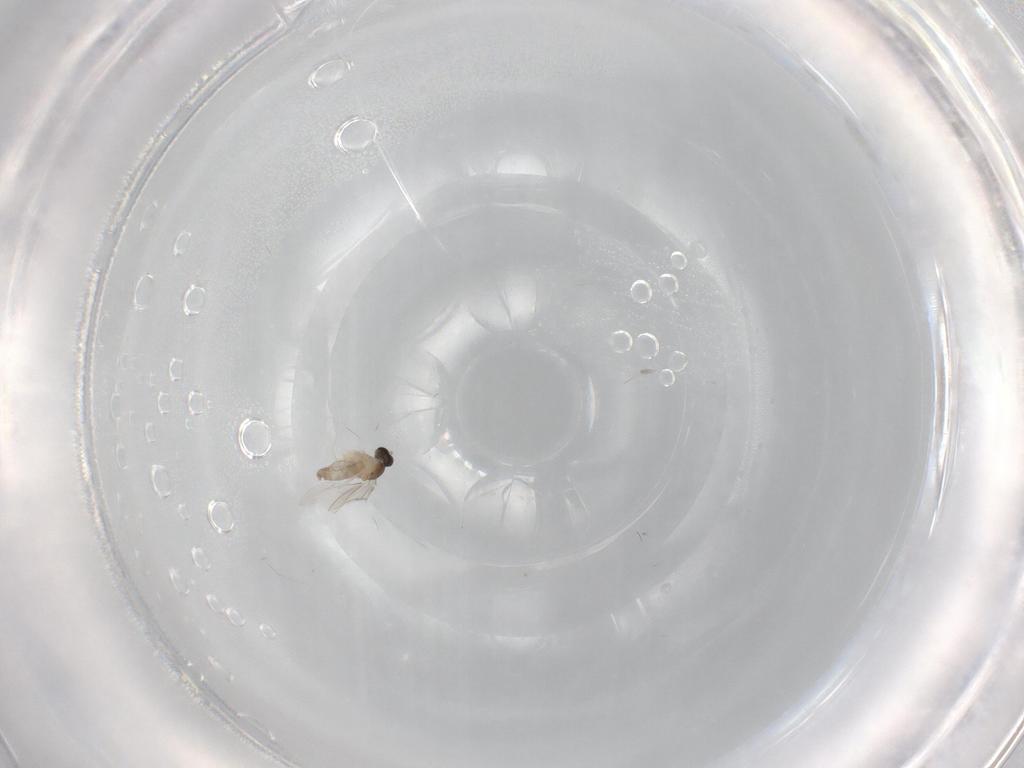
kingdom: Animalia
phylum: Arthropoda
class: Insecta
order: Diptera
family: Cecidomyiidae
